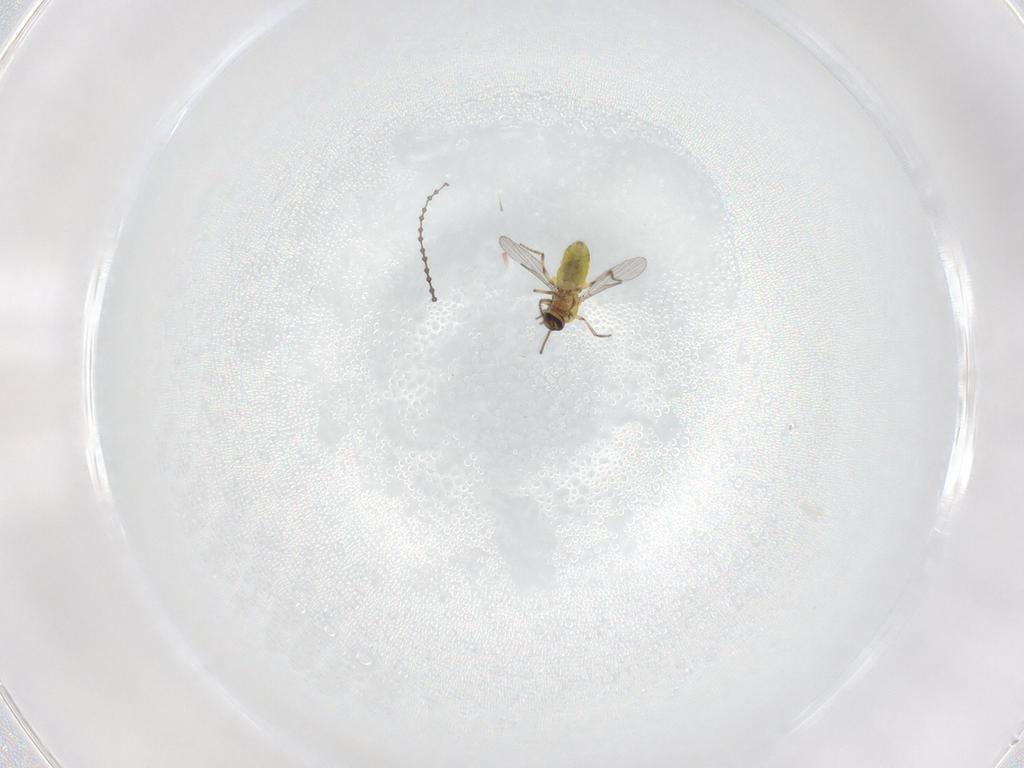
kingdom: Animalia
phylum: Arthropoda
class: Insecta
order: Diptera
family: Ceratopogonidae
